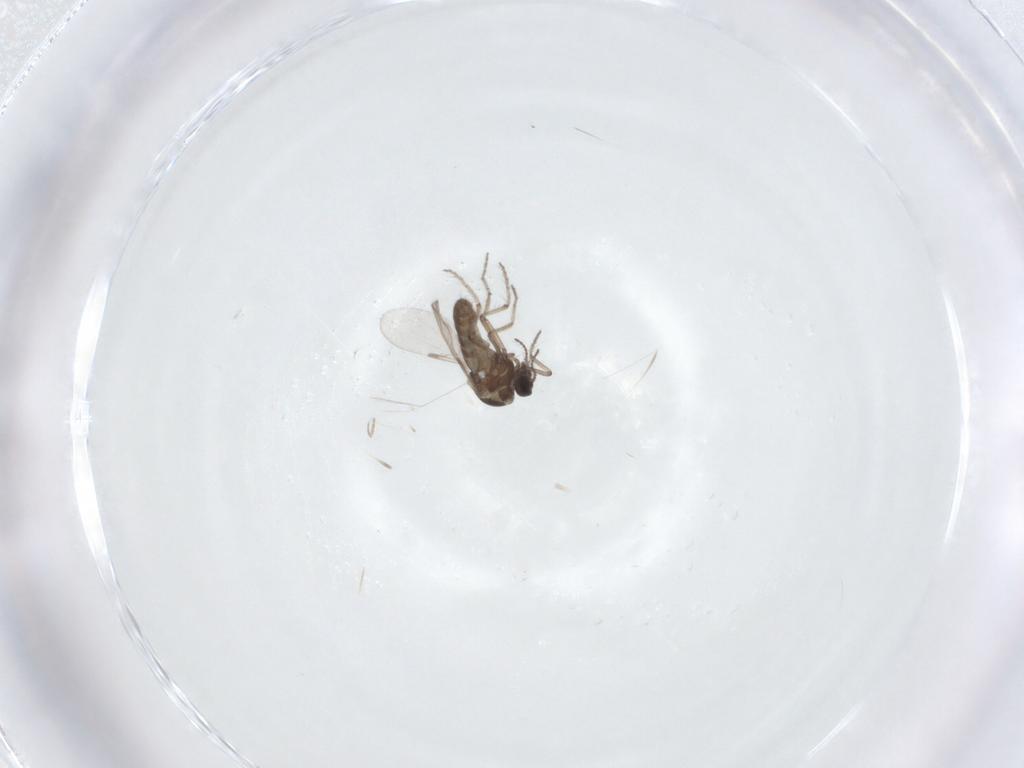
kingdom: Animalia
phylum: Arthropoda
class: Insecta
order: Diptera
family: Ceratopogonidae
